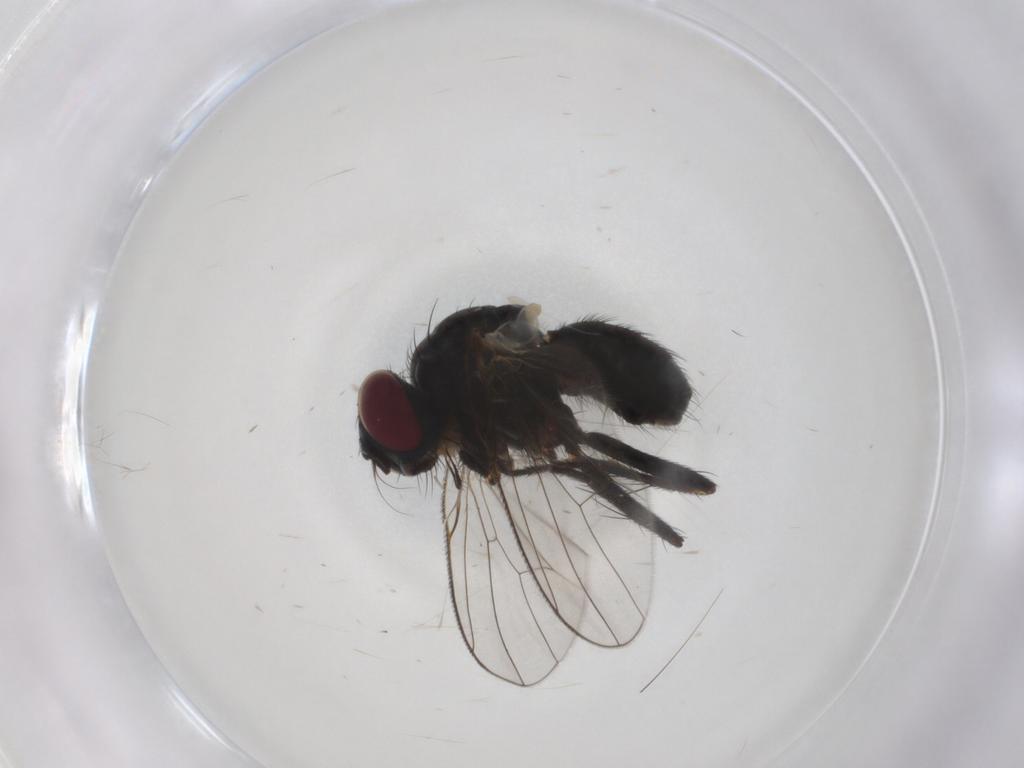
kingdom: Animalia
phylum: Arthropoda
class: Insecta
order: Diptera
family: Muscidae
